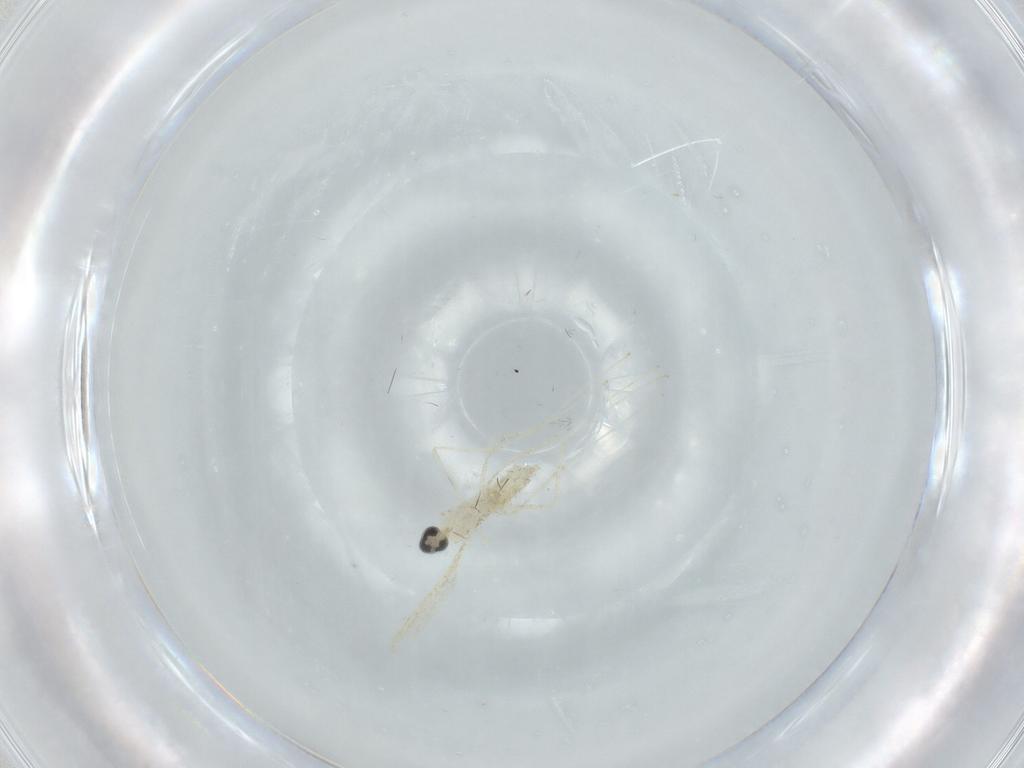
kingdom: Animalia
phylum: Arthropoda
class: Insecta
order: Diptera
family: Cecidomyiidae
